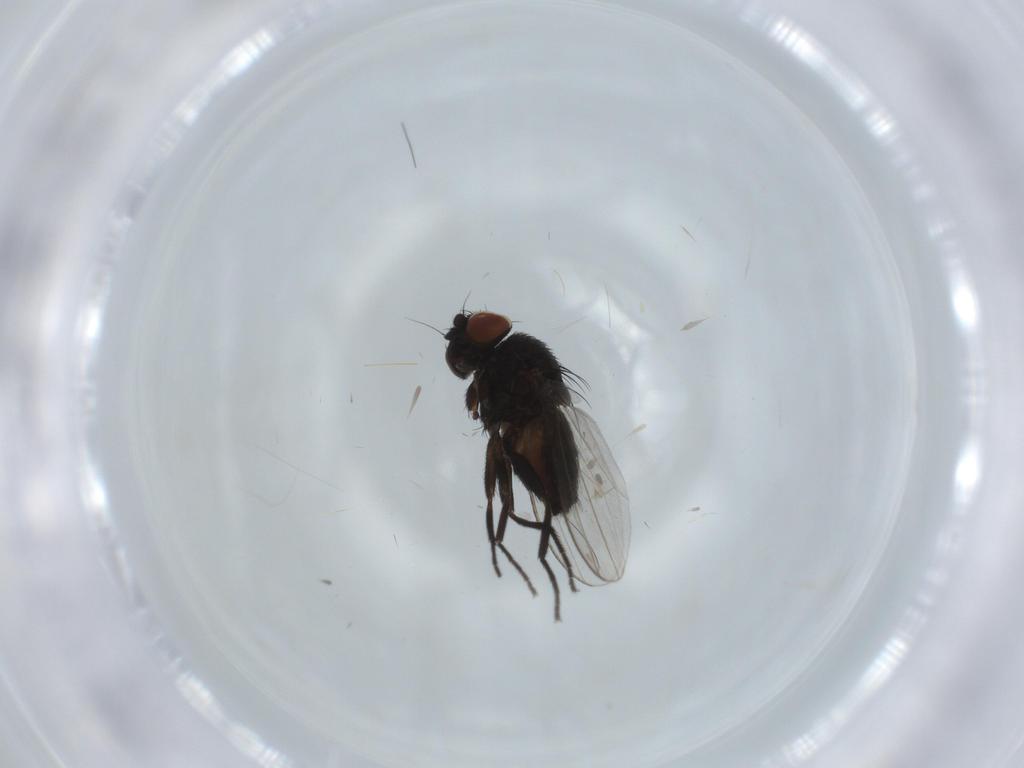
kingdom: Animalia
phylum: Arthropoda
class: Insecta
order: Diptera
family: Milichiidae
